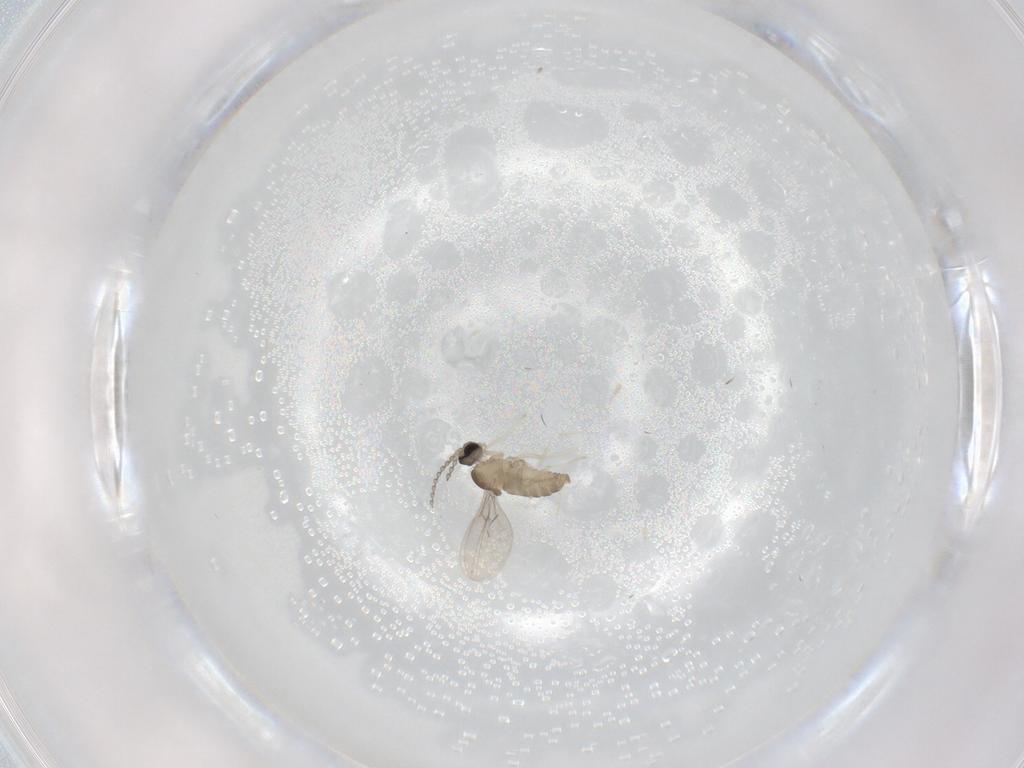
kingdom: Animalia
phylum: Arthropoda
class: Insecta
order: Diptera
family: Cecidomyiidae
